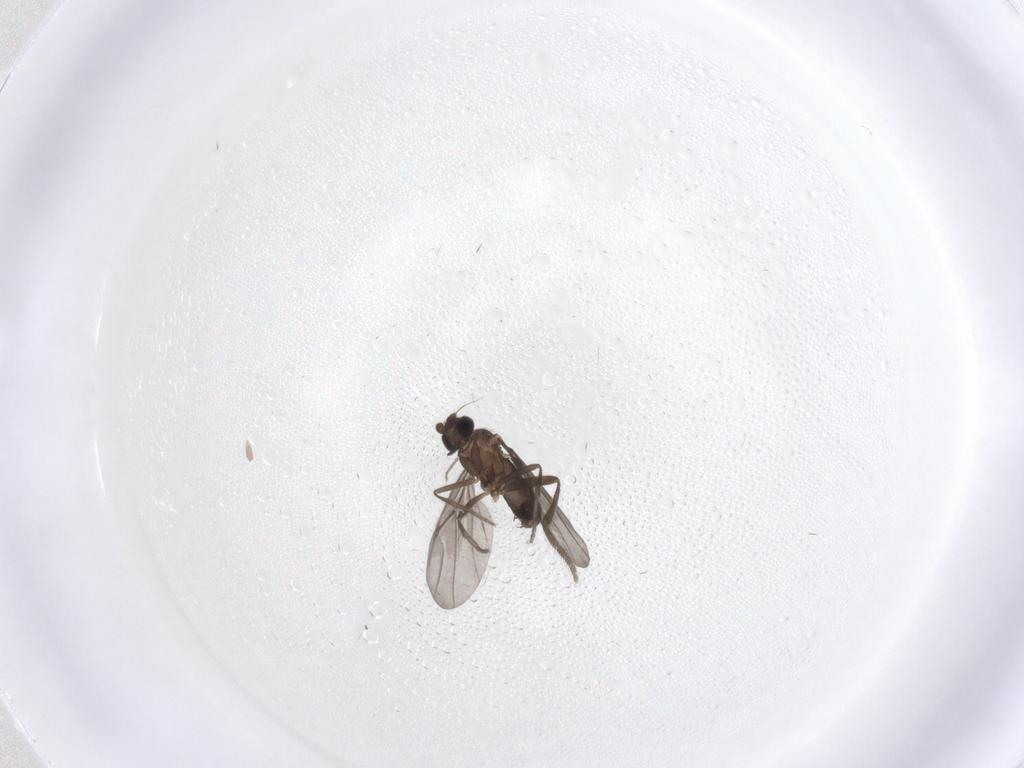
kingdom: Animalia
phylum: Arthropoda
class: Insecta
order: Diptera
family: Phoridae
